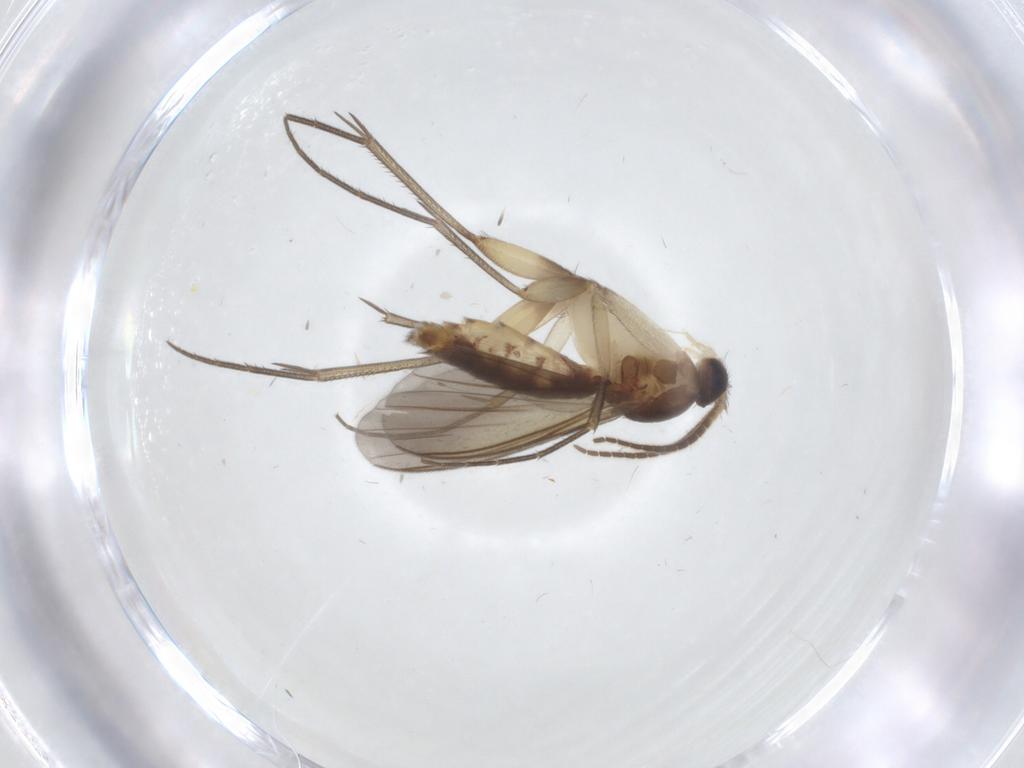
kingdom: Animalia
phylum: Arthropoda
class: Insecta
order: Diptera
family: Mycetophilidae
